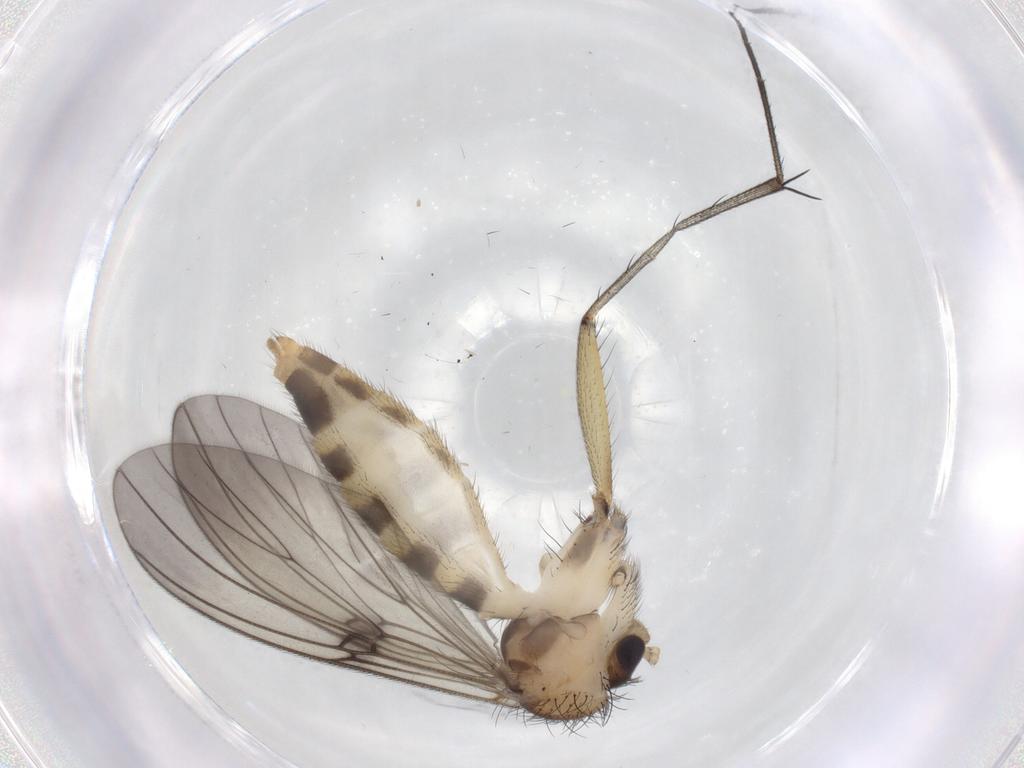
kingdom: Animalia
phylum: Arthropoda
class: Insecta
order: Diptera
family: Mycetophilidae
